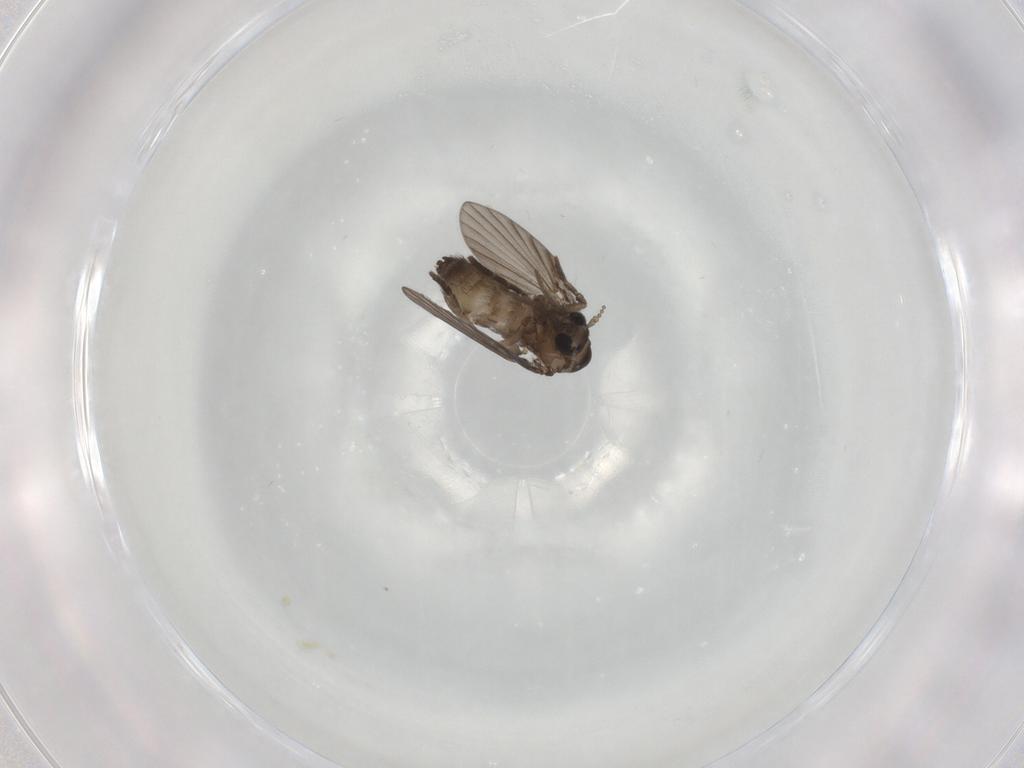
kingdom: Animalia
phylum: Arthropoda
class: Insecta
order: Diptera
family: Psychodidae
